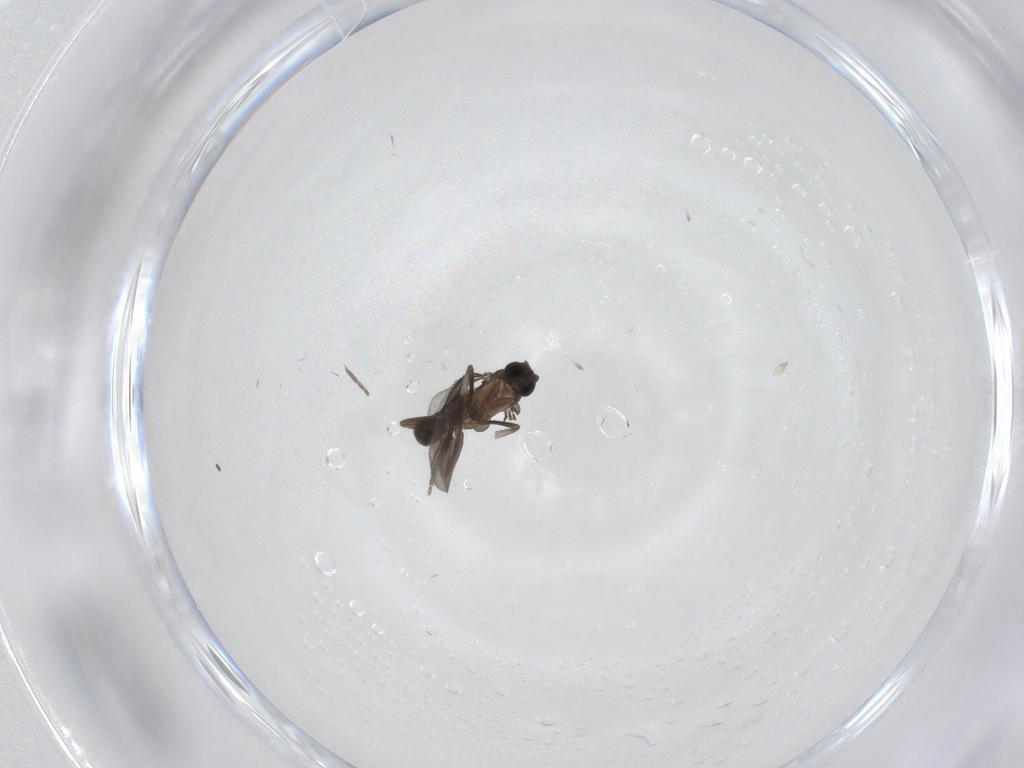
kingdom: Animalia
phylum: Arthropoda
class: Insecta
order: Diptera
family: Phoridae
